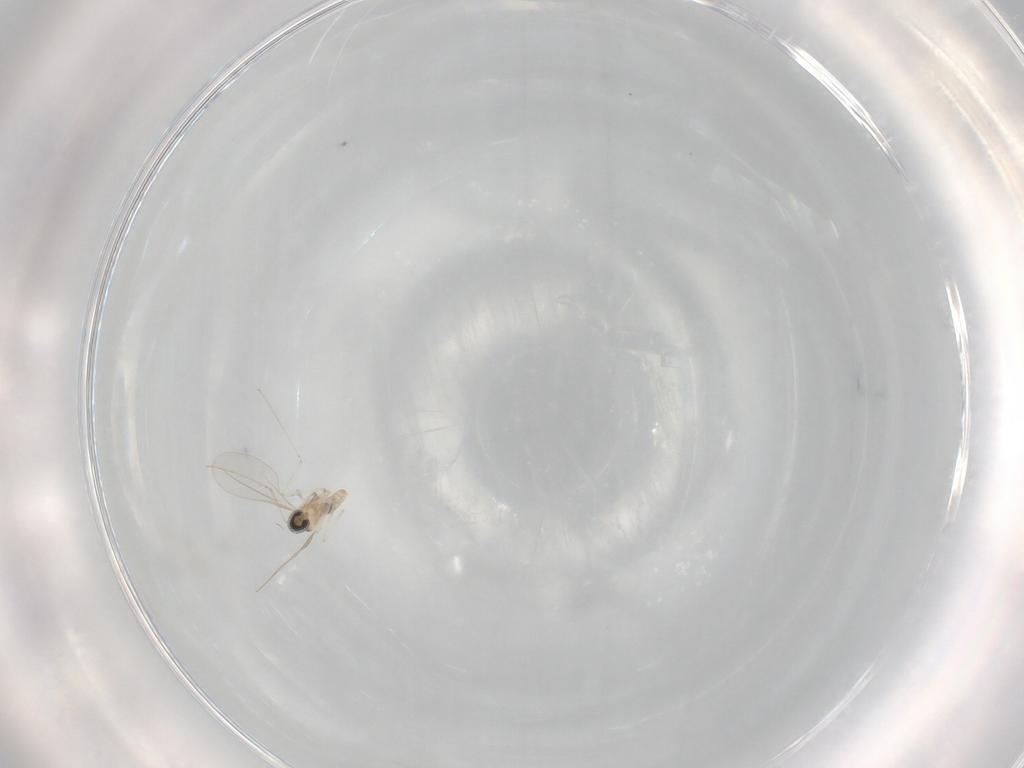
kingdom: Animalia
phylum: Arthropoda
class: Insecta
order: Diptera
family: Cecidomyiidae
